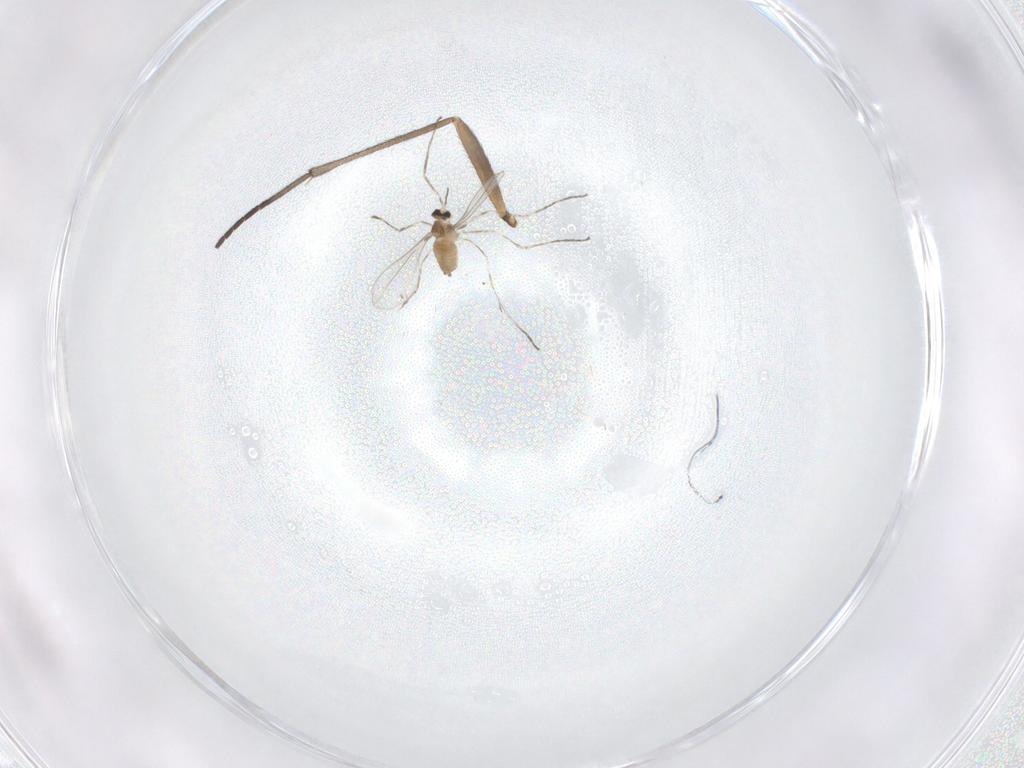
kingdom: Animalia
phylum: Arthropoda
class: Insecta
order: Diptera
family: Cecidomyiidae
